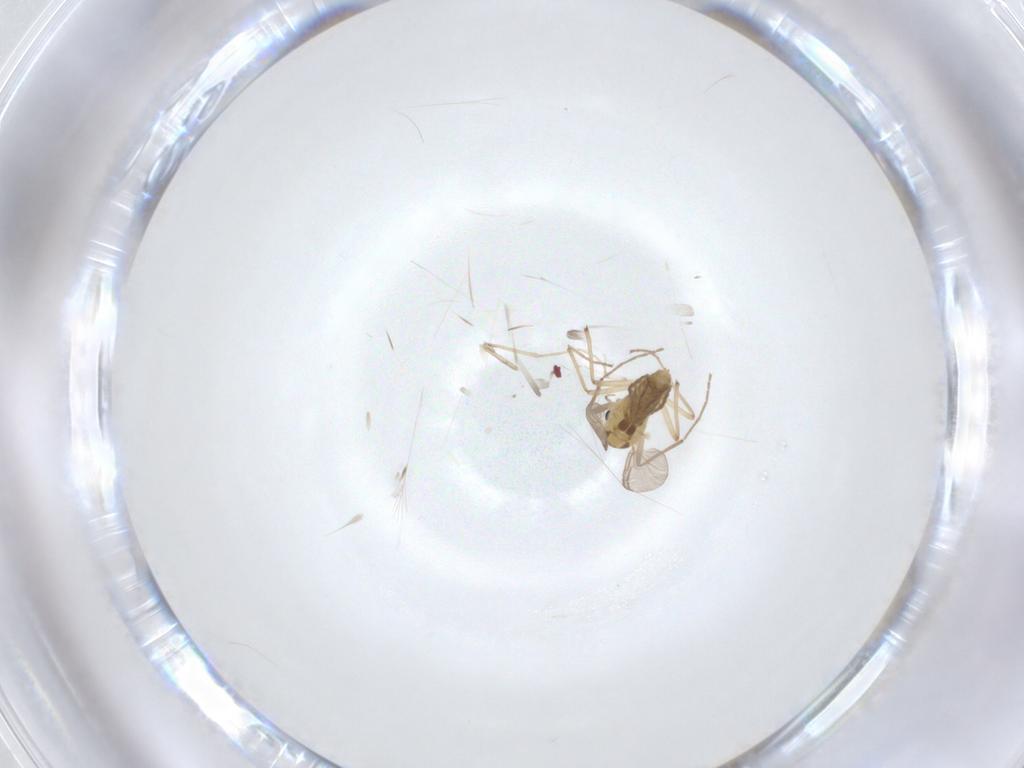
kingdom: Animalia
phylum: Arthropoda
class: Insecta
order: Diptera
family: Chironomidae
